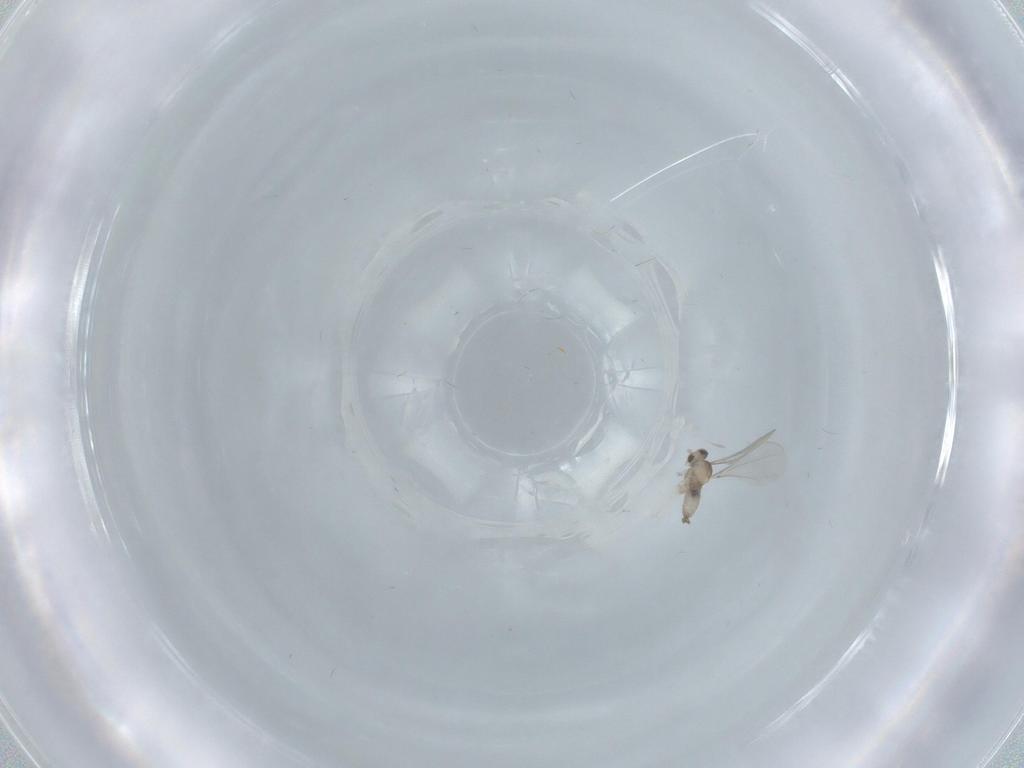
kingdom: Animalia
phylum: Arthropoda
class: Insecta
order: Diptera
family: Cecidomyiidae
